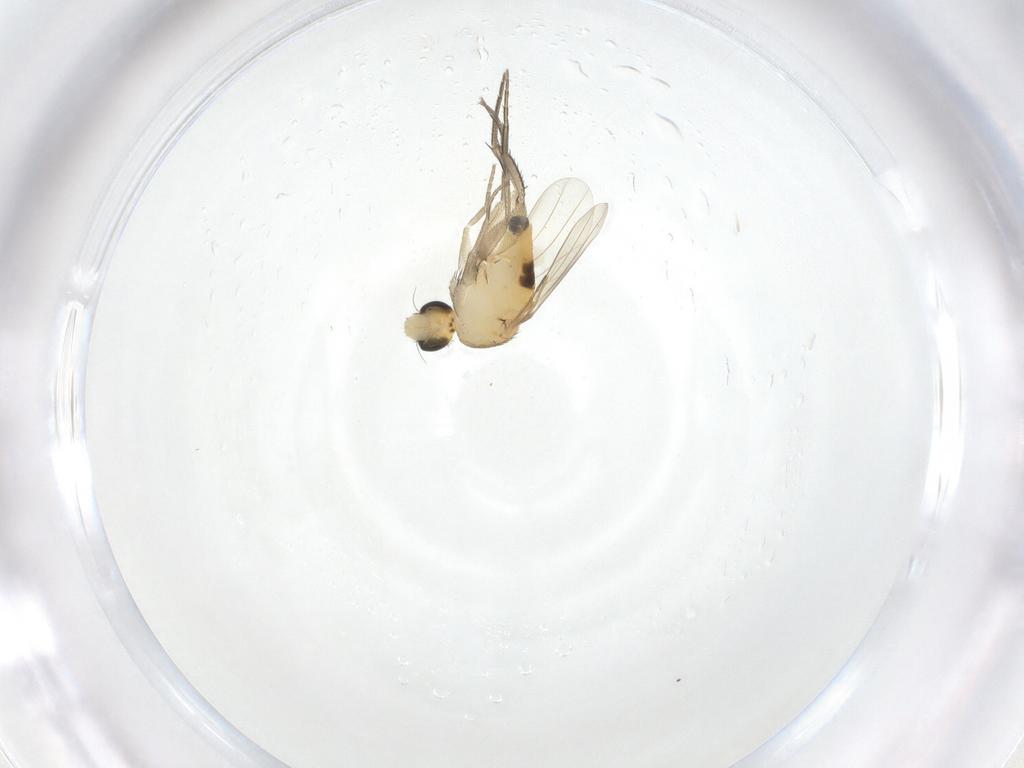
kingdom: Animalia
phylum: Arthropoda
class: Insecta
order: Diptera
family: Phoridae
